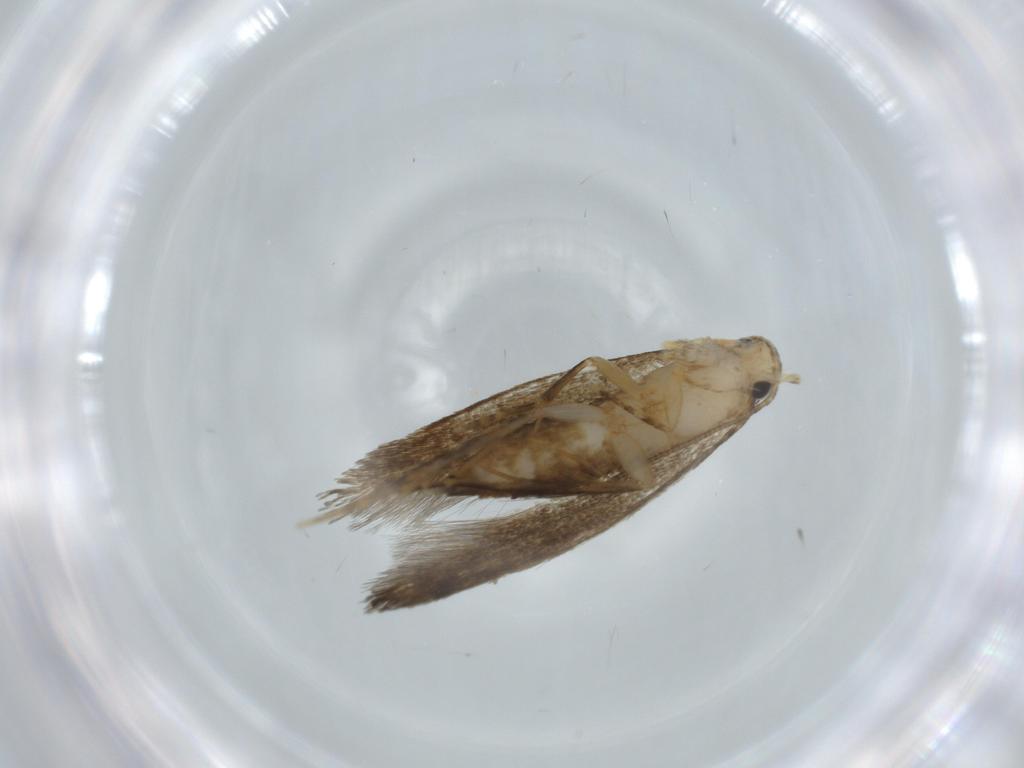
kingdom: Animalia
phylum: Arthropoda
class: Insecta
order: Lepidoptera
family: Tineidae
